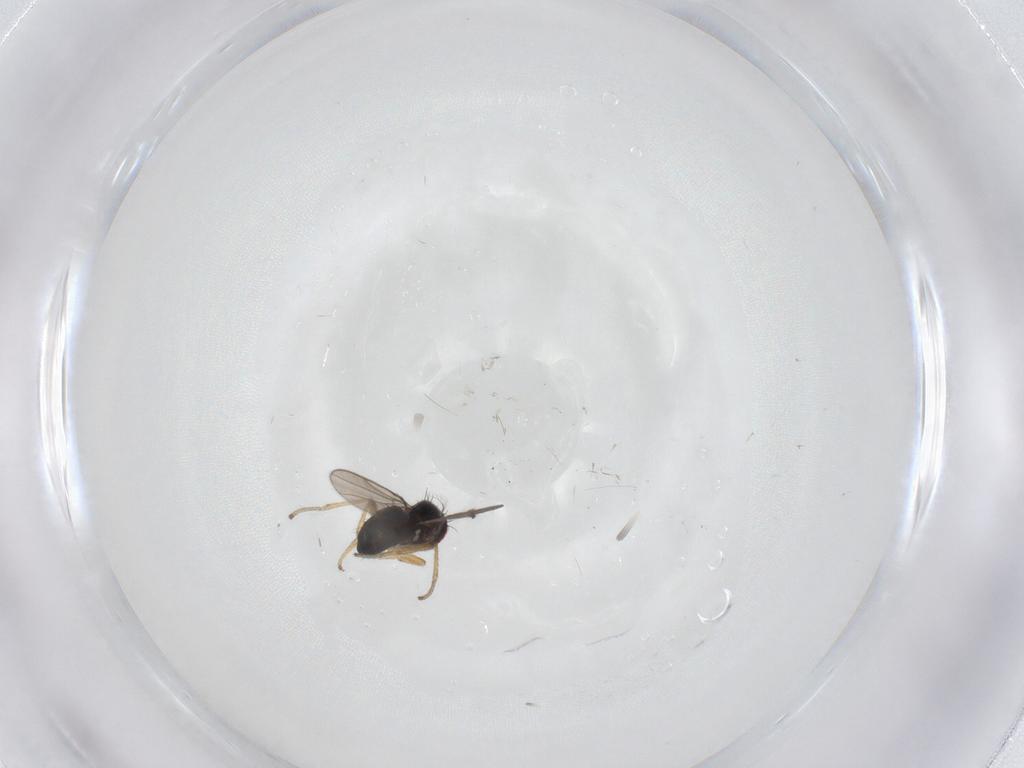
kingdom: Animalia
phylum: Arthropoda
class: Insecta
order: Diptera
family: Ephydridae
